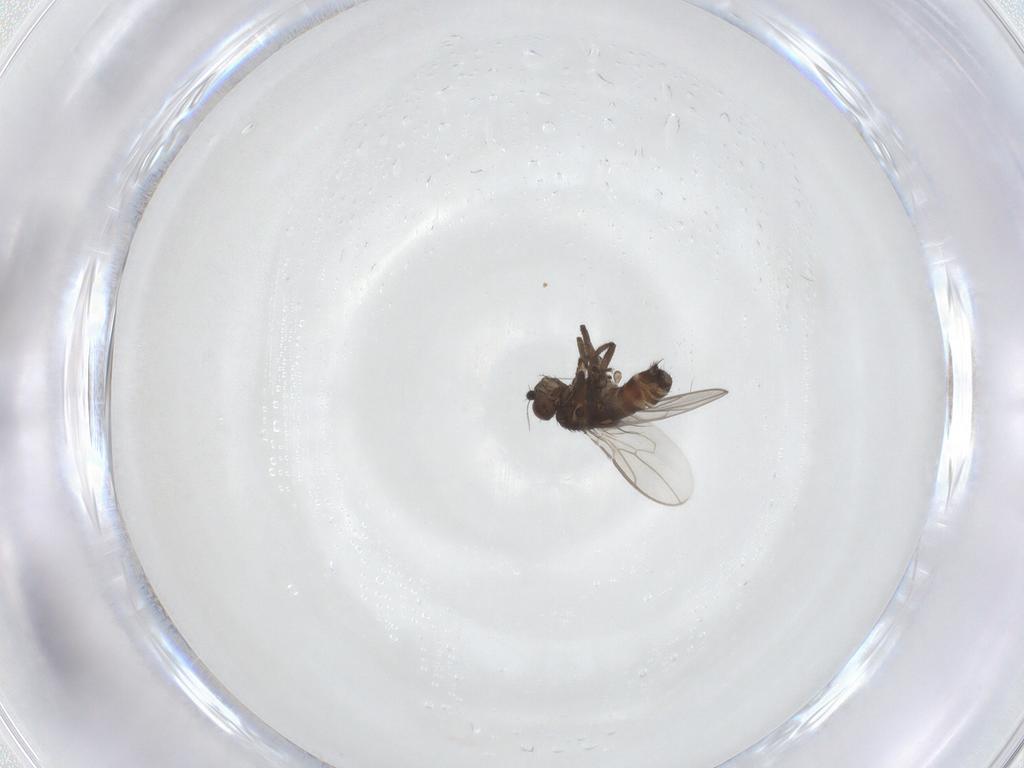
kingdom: Animalia
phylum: Arthropoda
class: Insecta
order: Diptera
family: Sphaeroceridae
